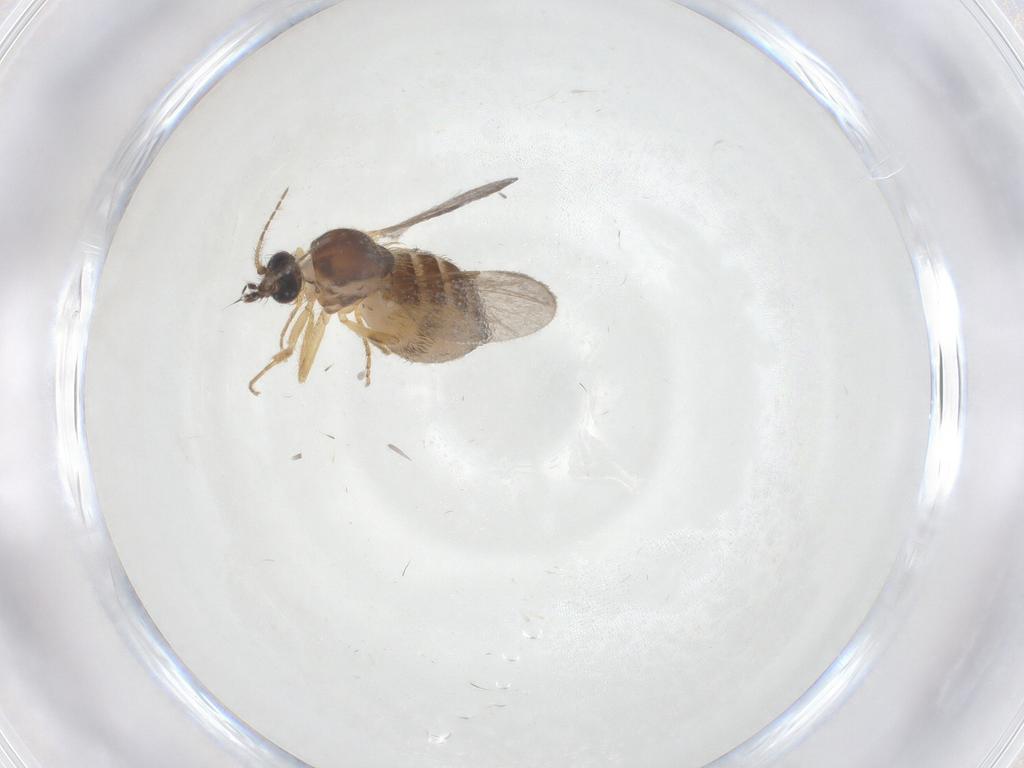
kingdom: Animalia
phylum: Arthropoda
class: Insecta
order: Diptera
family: Ceratopogonidae
